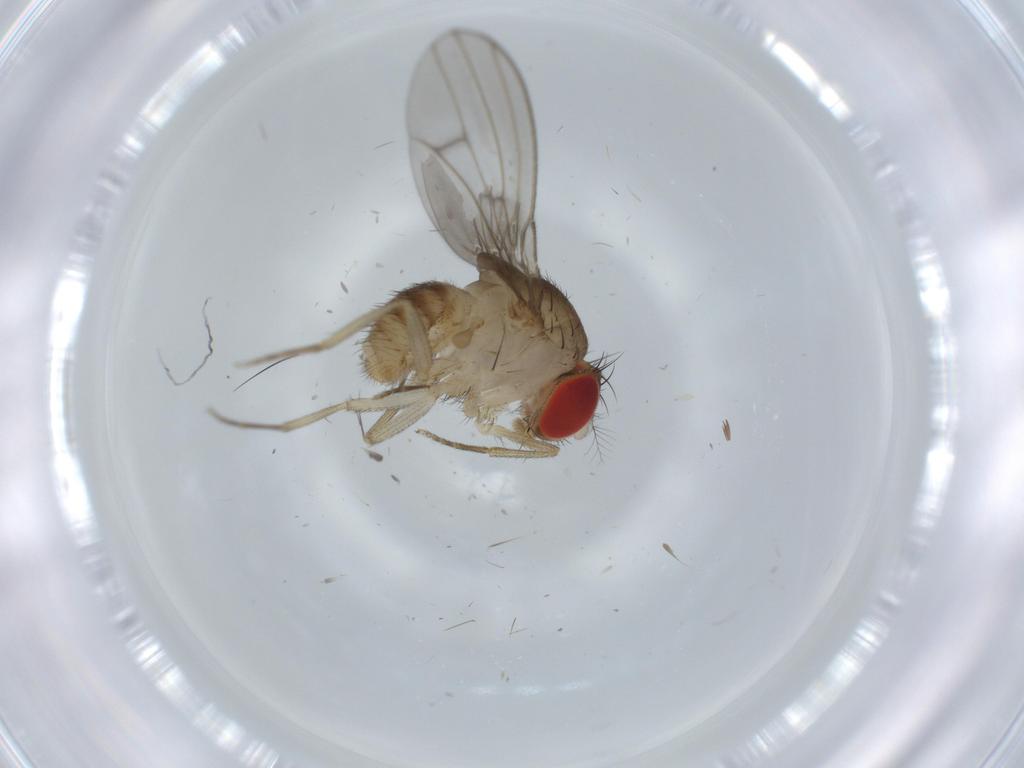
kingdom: Animalia
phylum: Arthropoda
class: Insecta
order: Diptera
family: Drosophilidae
